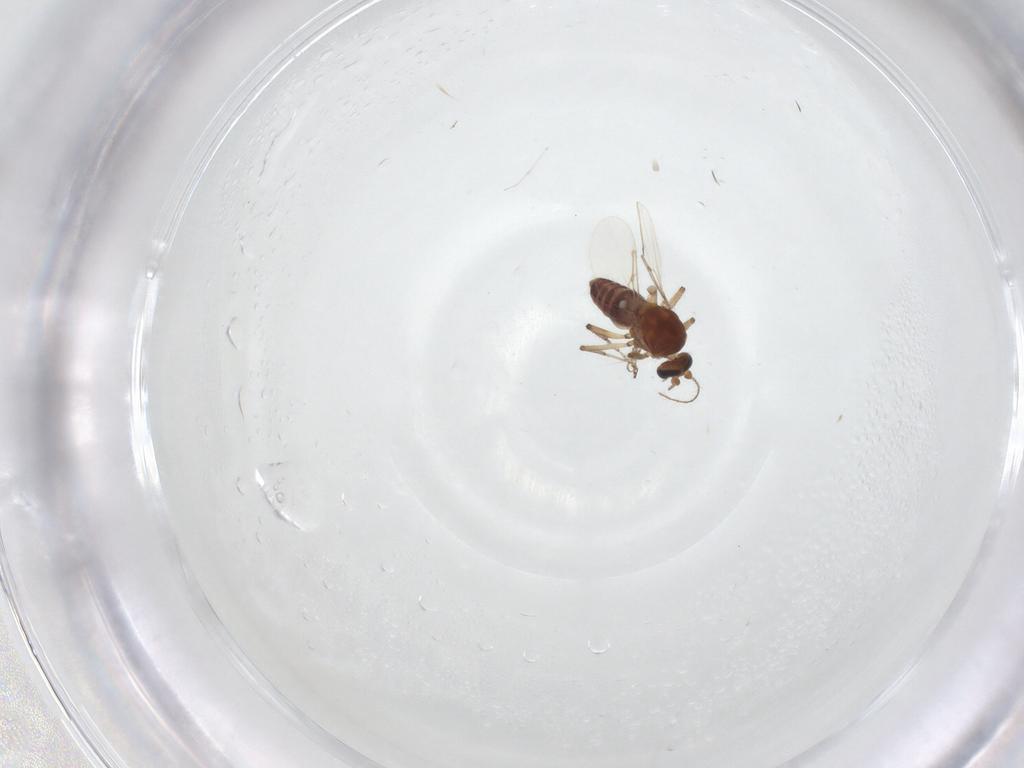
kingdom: Animalia
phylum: Arthropoda
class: Insecta
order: Diptera
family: Ceratopogonidae
